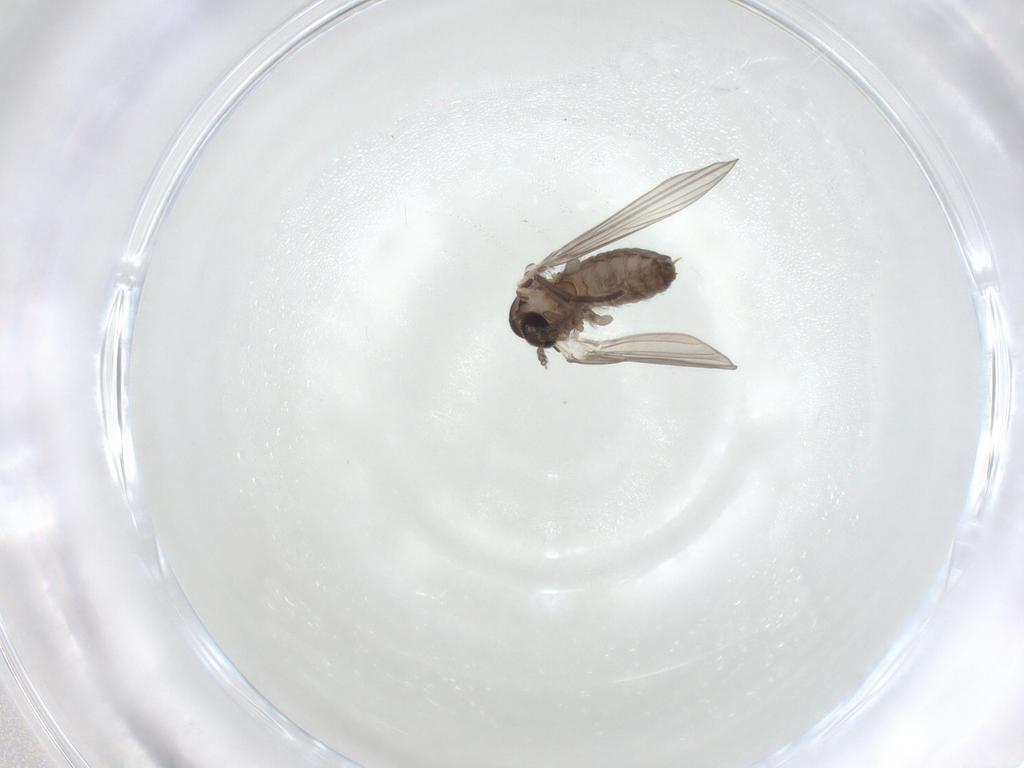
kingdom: Animalia
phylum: Arthropoda
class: Insecta
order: Diptera
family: Psychodidae
